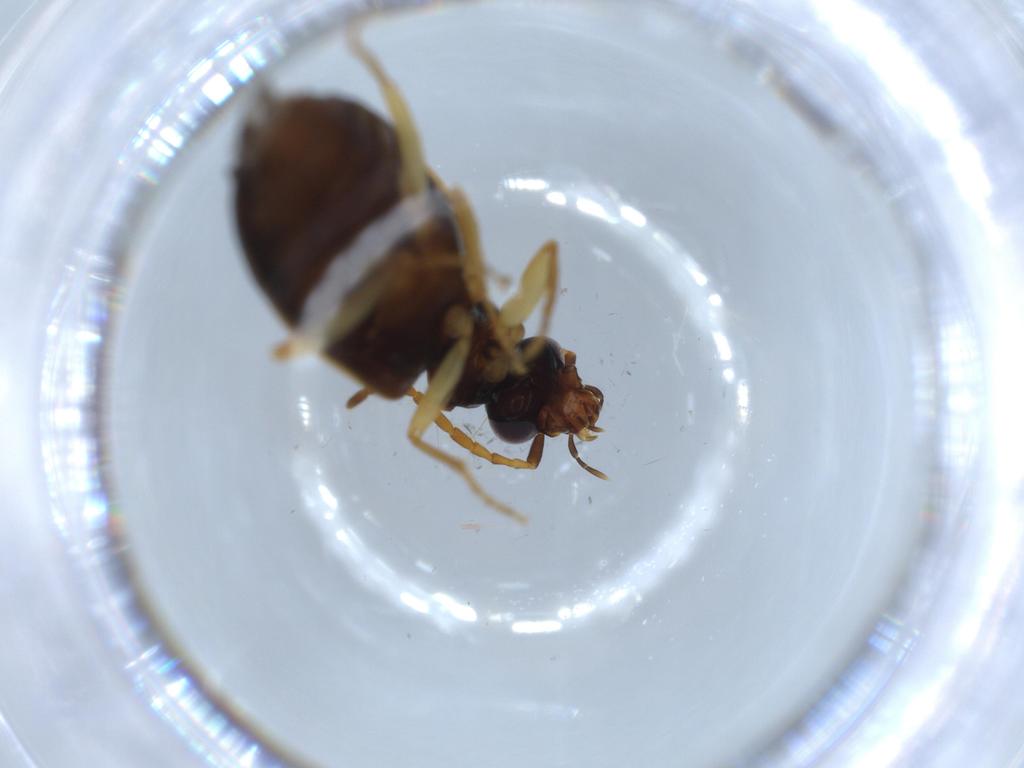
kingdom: Animalia
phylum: Arthropoda
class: Insecta
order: Coleoptera
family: Carabidae
